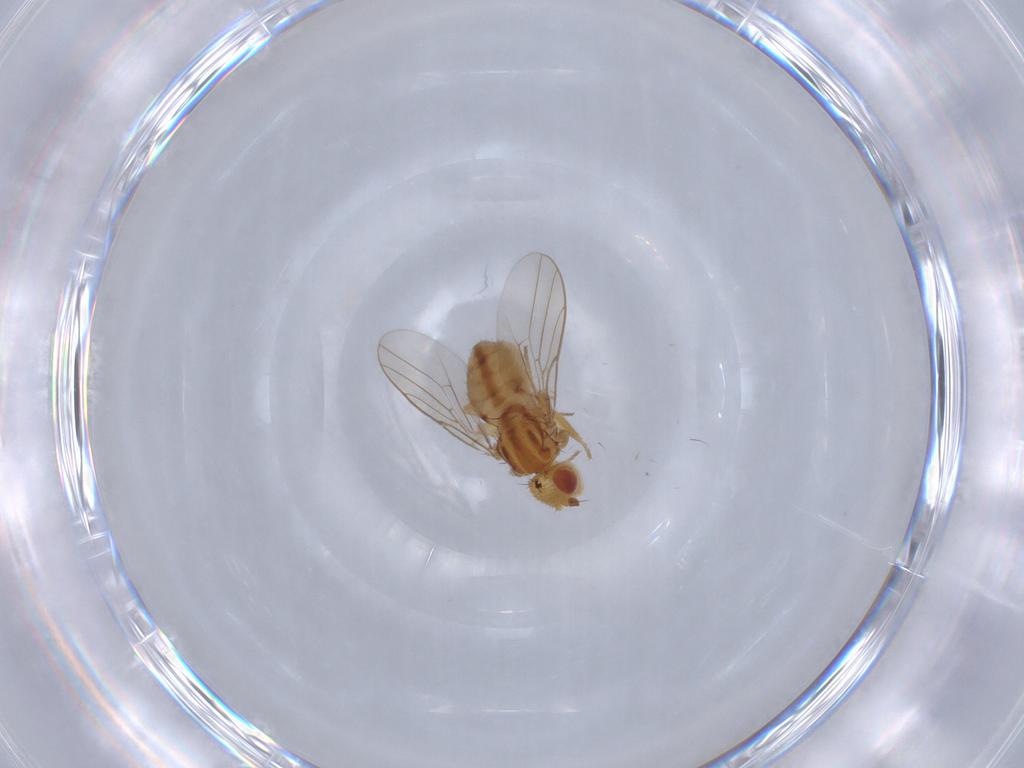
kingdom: Animalia
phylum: Arthropoda
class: Insecta
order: Diptera
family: Chloropidae
